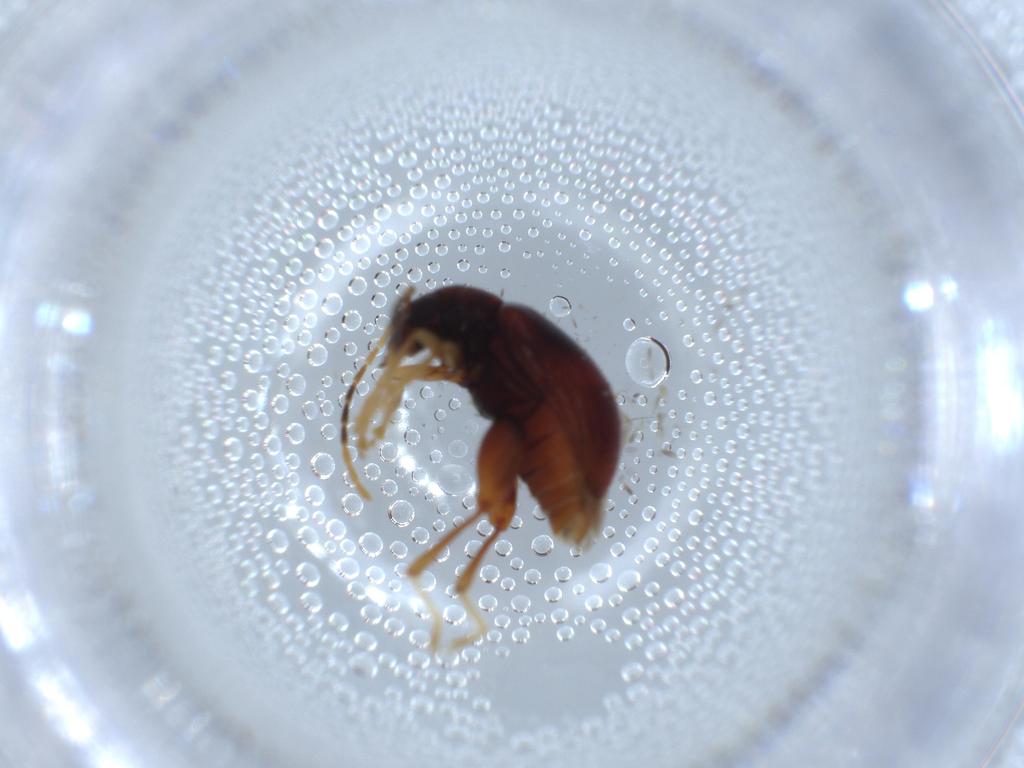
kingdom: Animalia
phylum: Arthropoda
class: Insecta
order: Coleoptera
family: Chrysomelidae
